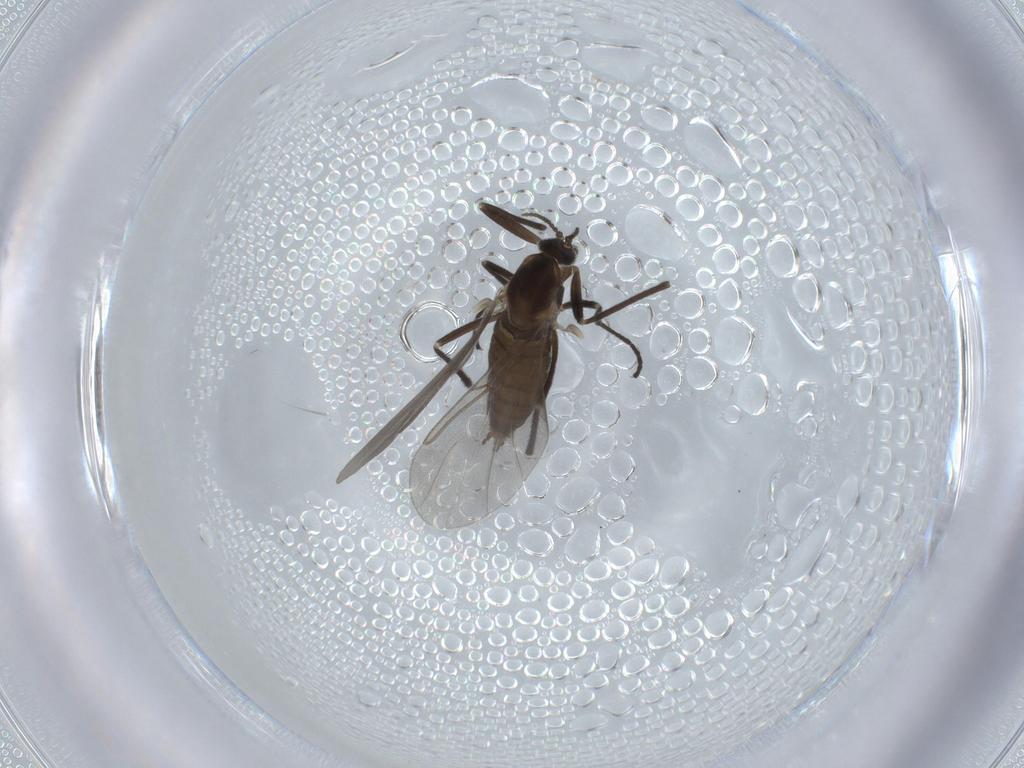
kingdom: Animalia
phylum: Arthropoda
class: Insecta
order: Diptera
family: Cecidomyiidae
